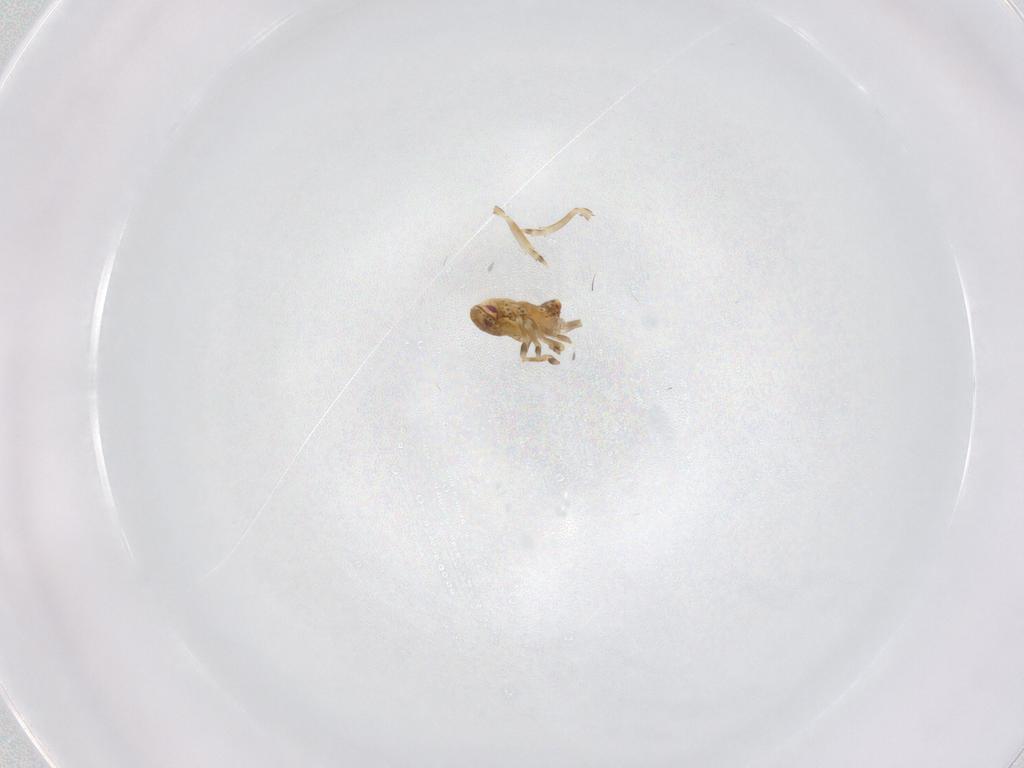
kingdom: Animalia
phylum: Arthropoda
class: Insecta
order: Hemiptera
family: Flatidae
